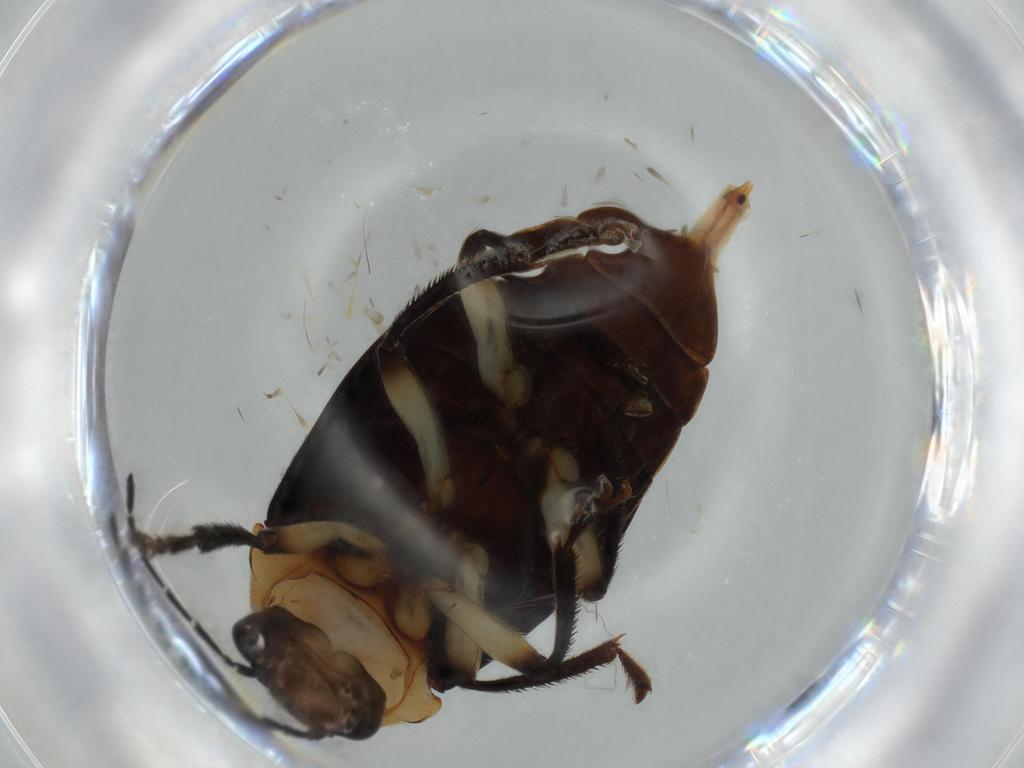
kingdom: Animalia
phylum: Arthropoda
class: Insecta
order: Coleoptera
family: Ptilodactylidae
